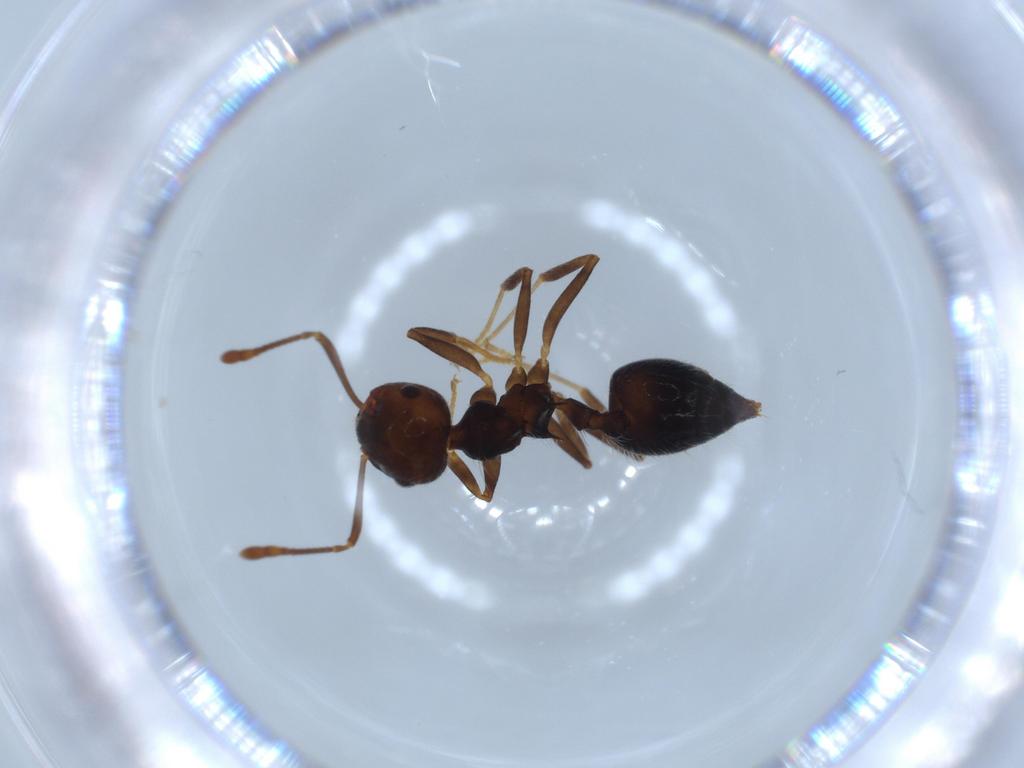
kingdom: Animalia
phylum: Arthropoda
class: Insecta
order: Hymenoptera
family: Formicidae
